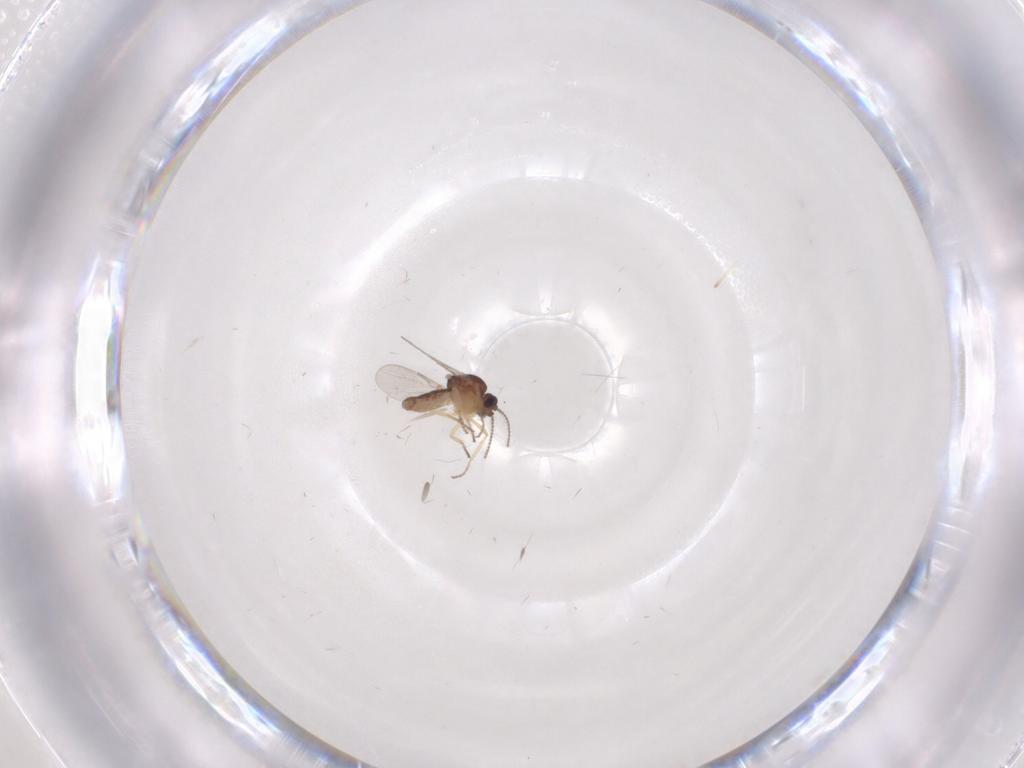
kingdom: Animalia
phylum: Arthropoda
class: Insecta
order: Diptera
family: Ceratopogonidae
